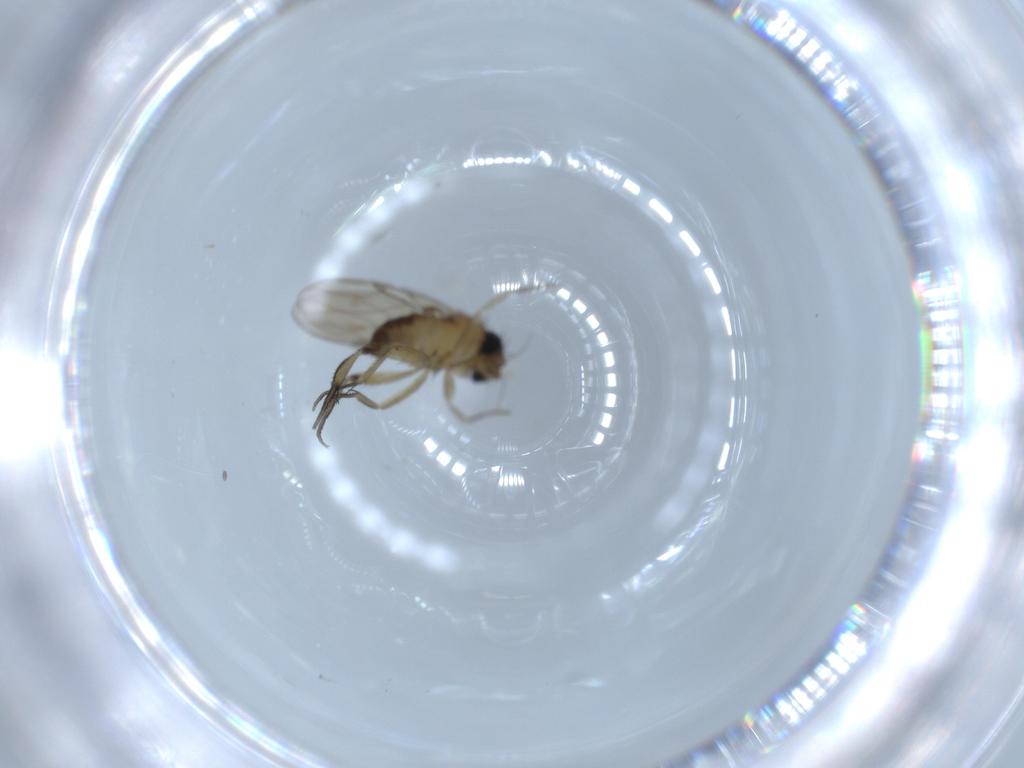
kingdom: Animalia
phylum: Arthropoda
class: Insecta
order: Diptera
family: Phoridae
